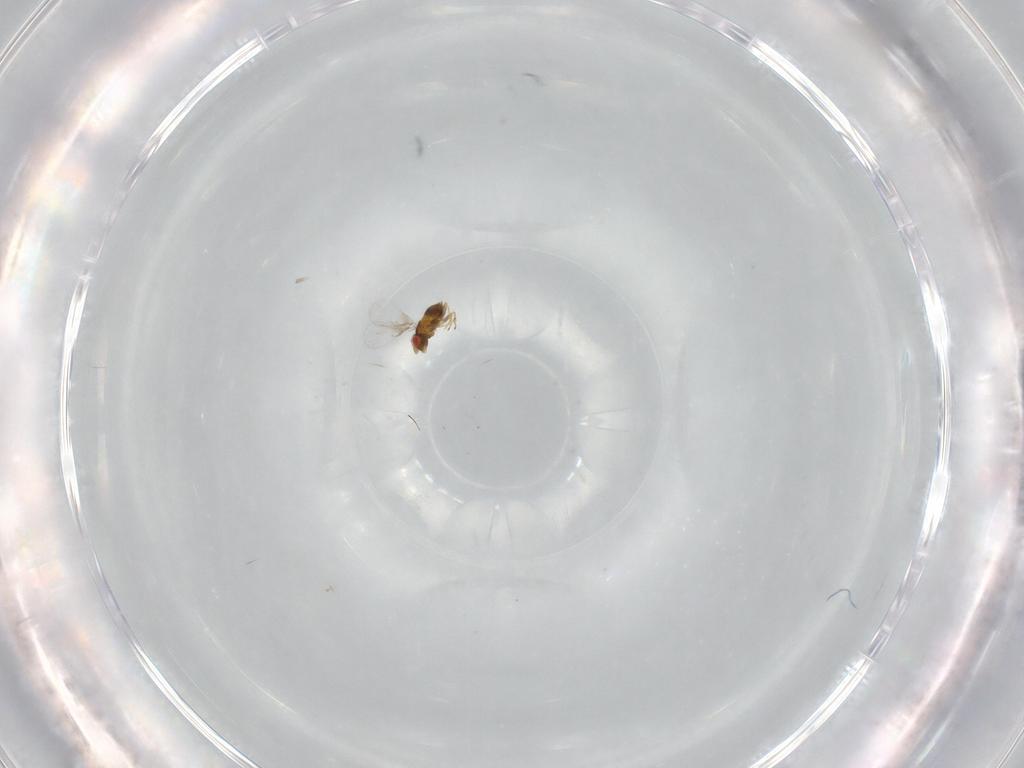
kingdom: Animalia
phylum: Arthropoda
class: Insecta
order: Hymenoptera
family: Trichogrammatidae
